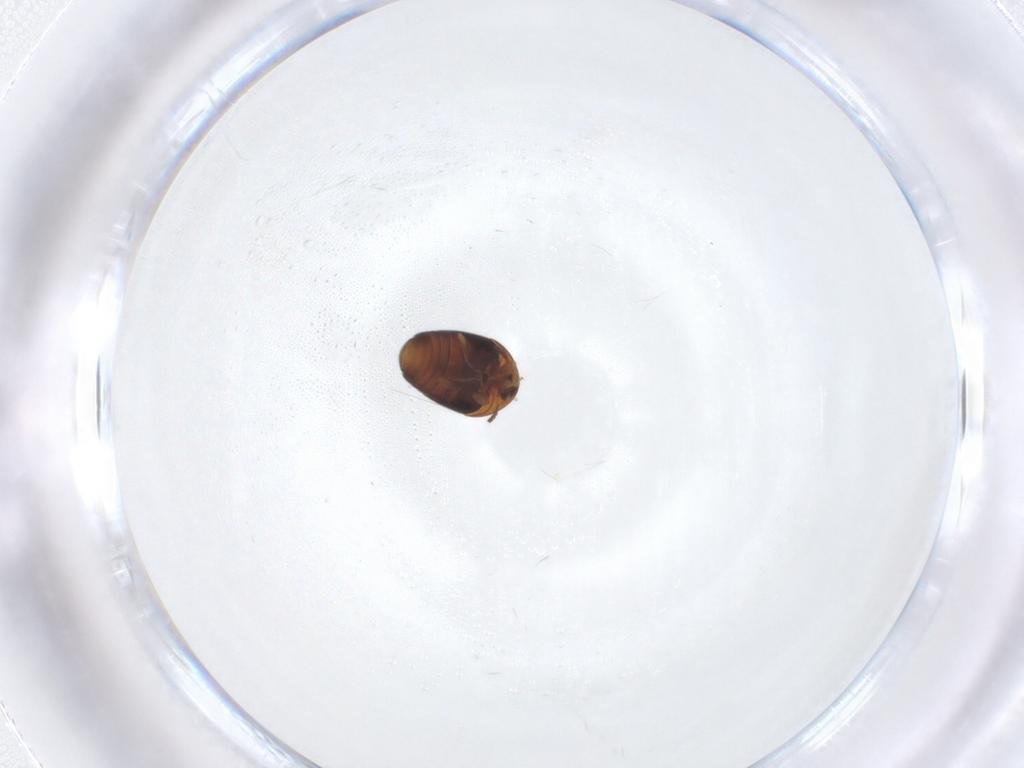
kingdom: Animalia
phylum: Arthropoda
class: Insecta
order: Coleoptera
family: Corylophidae
